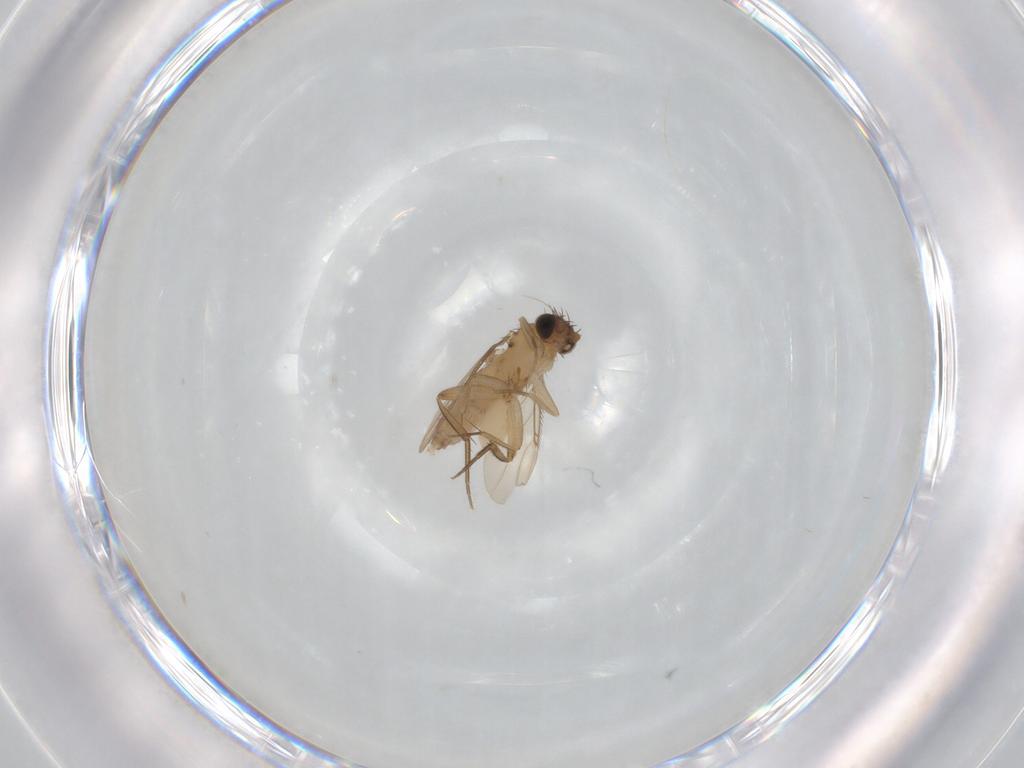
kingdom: Animalia
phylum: Arthropoda
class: Insecta
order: Diptera
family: Phoridae
